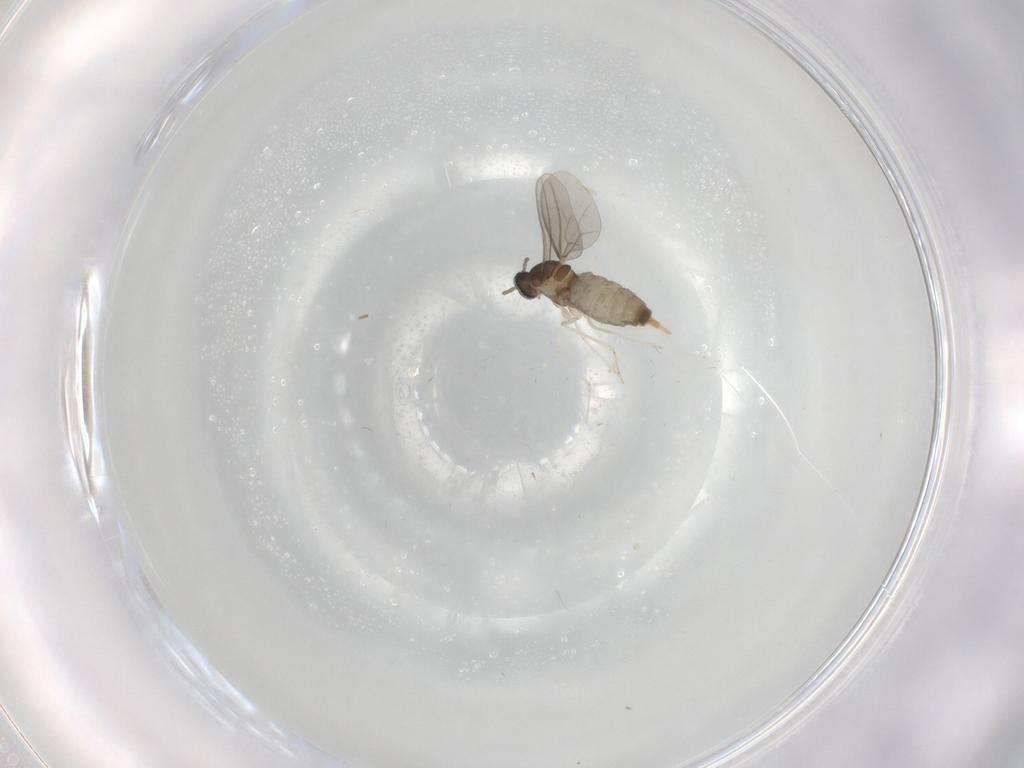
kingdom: Animalia
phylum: Arthropoda
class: Insecta
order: Diptera
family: Cecidomyiidae
